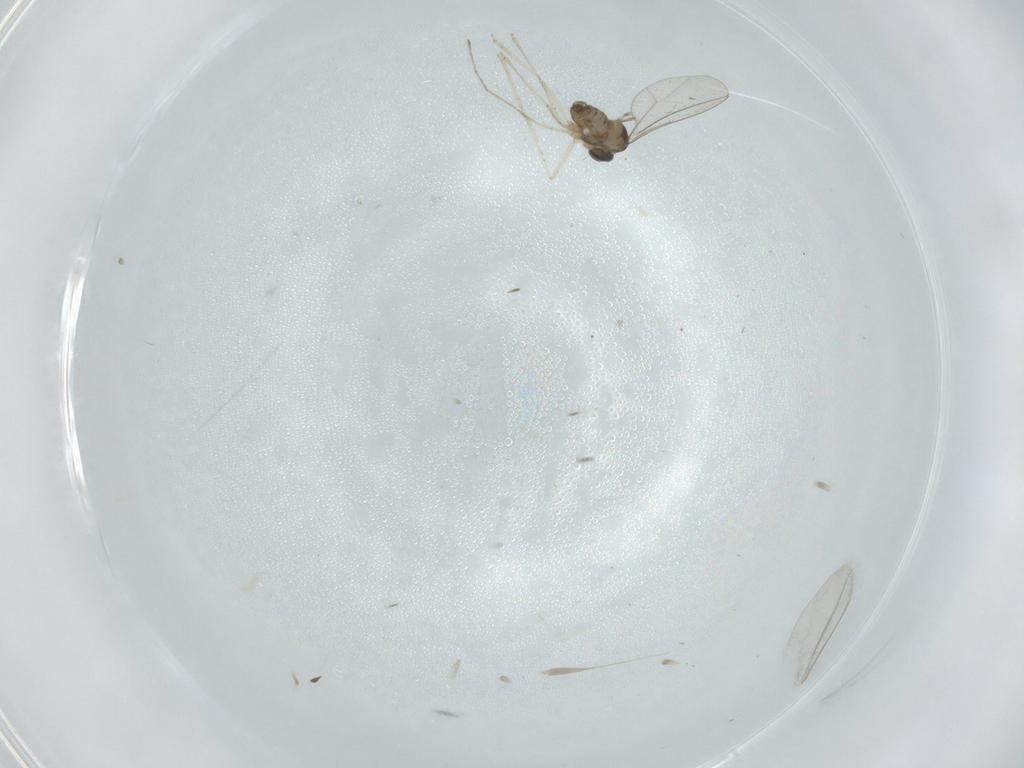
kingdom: Animalia
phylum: Arthropoda
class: Insecta
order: Diptera
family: Cecidomyiidae
